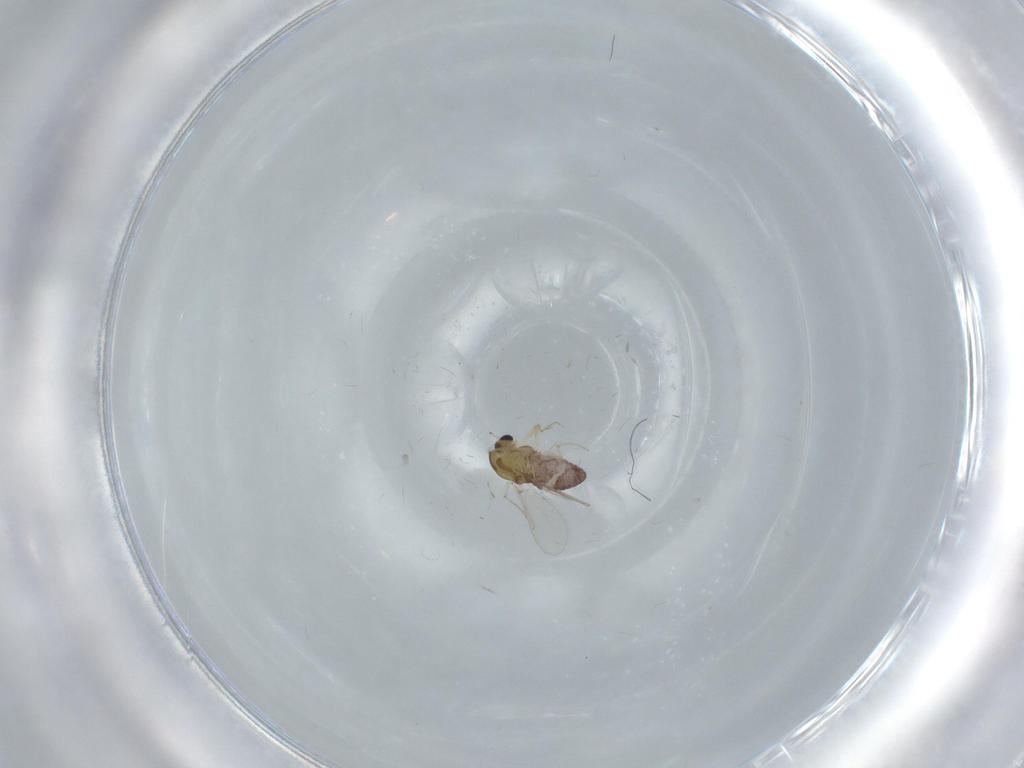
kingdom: Animalia
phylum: Arthropoda
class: Insecta
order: Diptera
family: Chironomidae
